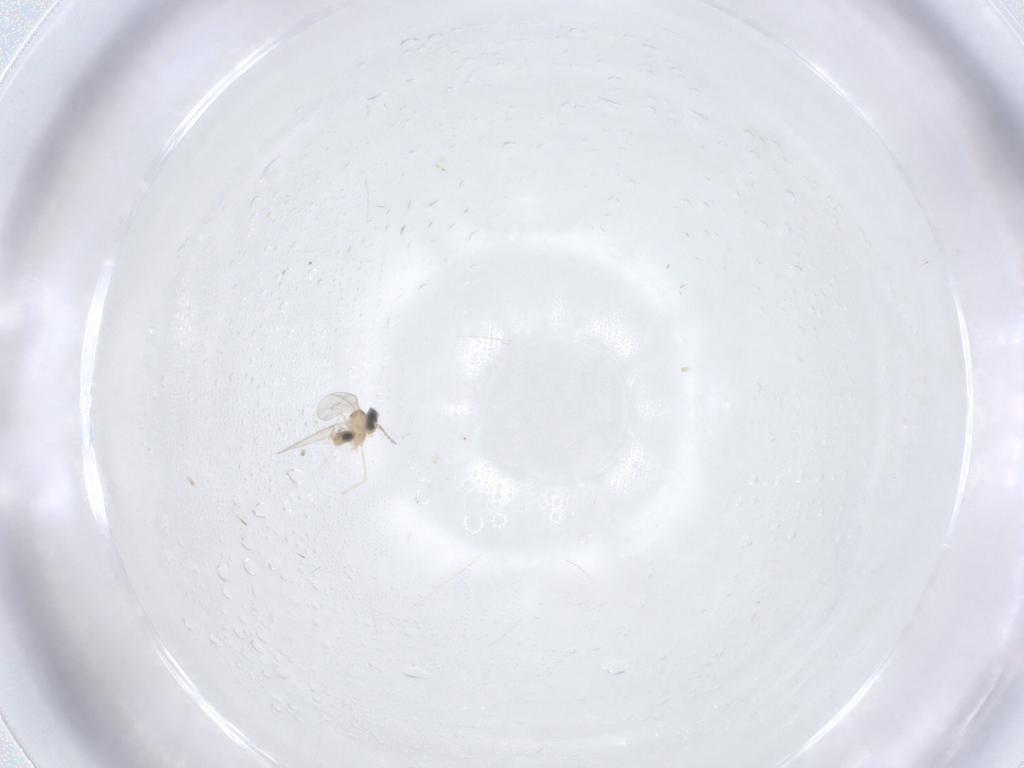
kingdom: Animalia
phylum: Arthropoda
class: Insecta
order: Diptera
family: Cecidomyiidae
